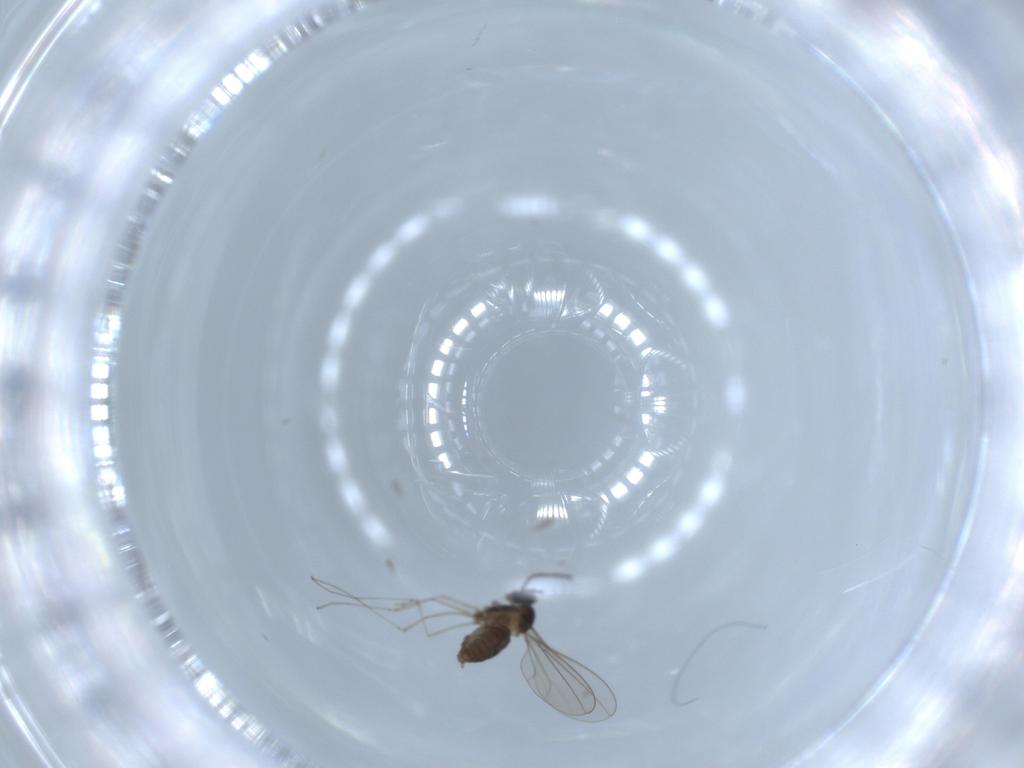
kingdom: Animalia
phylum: Arthropoda
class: Insecta
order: Diptera
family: Cecidomyiidae
